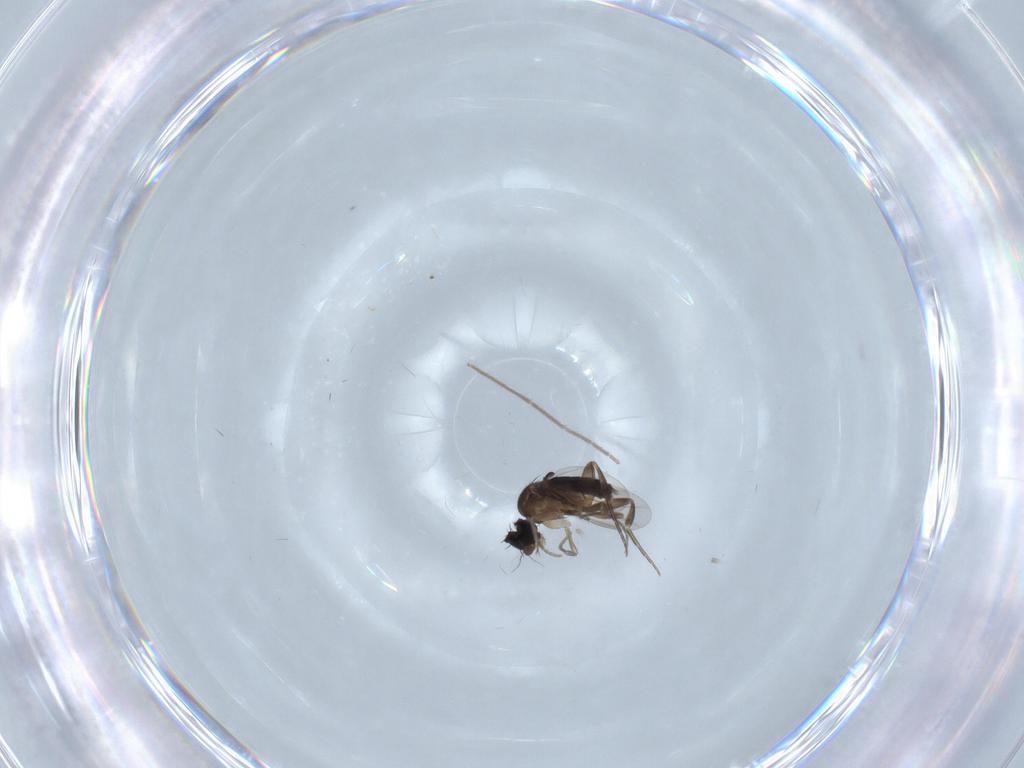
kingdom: Animalia
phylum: Arthropoda
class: Insecta
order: Diptera
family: Phoridae
